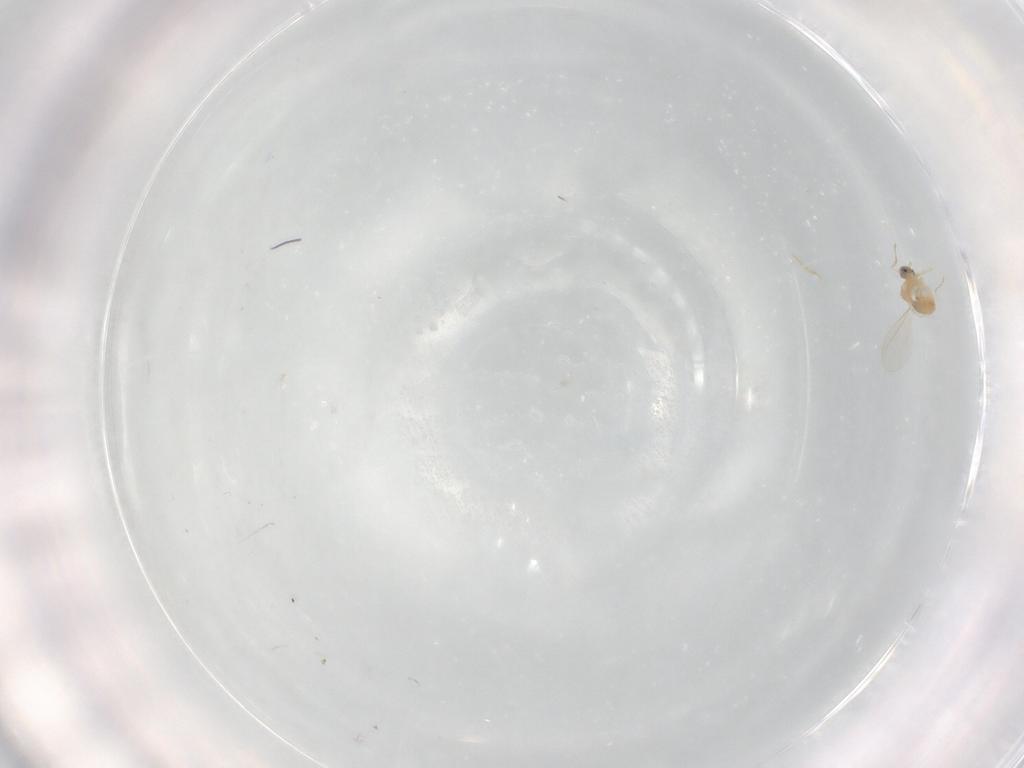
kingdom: Animalia
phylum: Arthropoda
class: Insecta
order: Diptera
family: Cecidomyiidae
